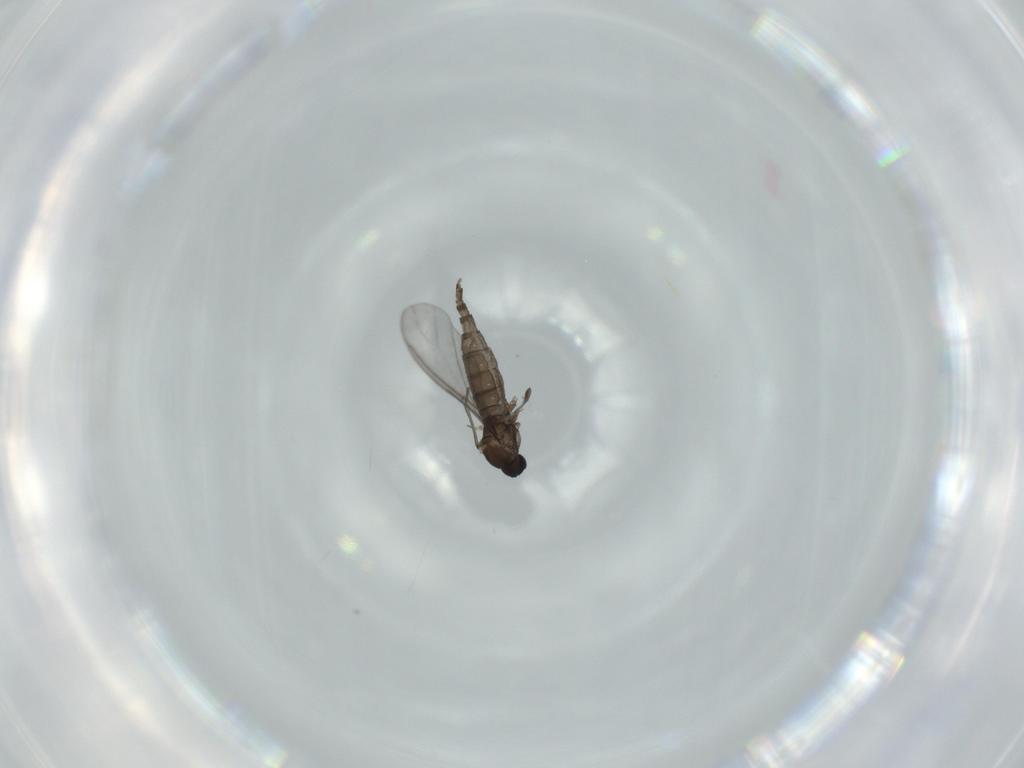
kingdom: Animalia
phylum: Arthropoda
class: Insecta
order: Diptera
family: Sciaridae
